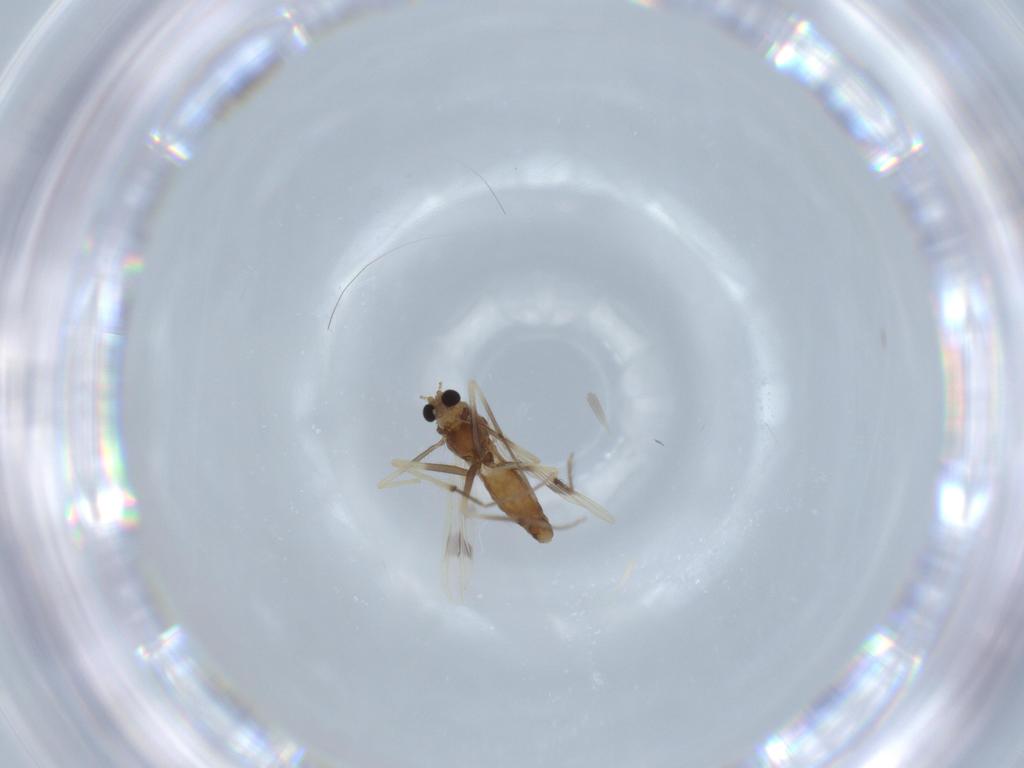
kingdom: Animalia
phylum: Arthropoda
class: Insecta
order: Diptera
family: Chironomidae
